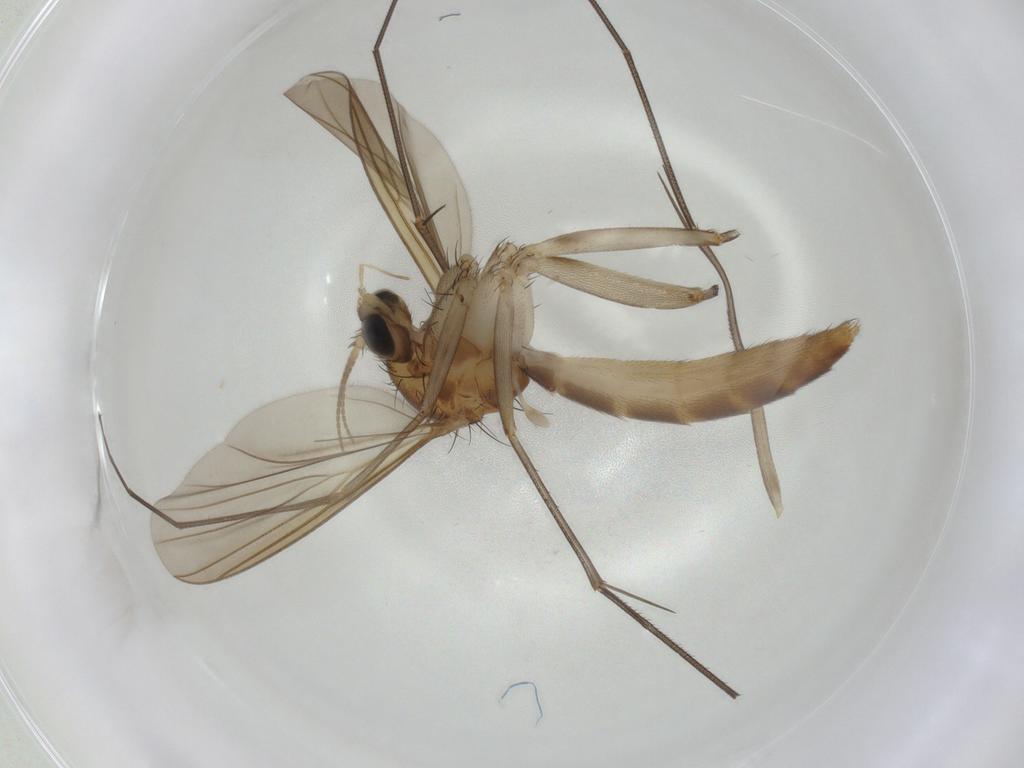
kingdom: Animalia
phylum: Arthropoda
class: Insecta
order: Diptera
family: Mycetophilidae
